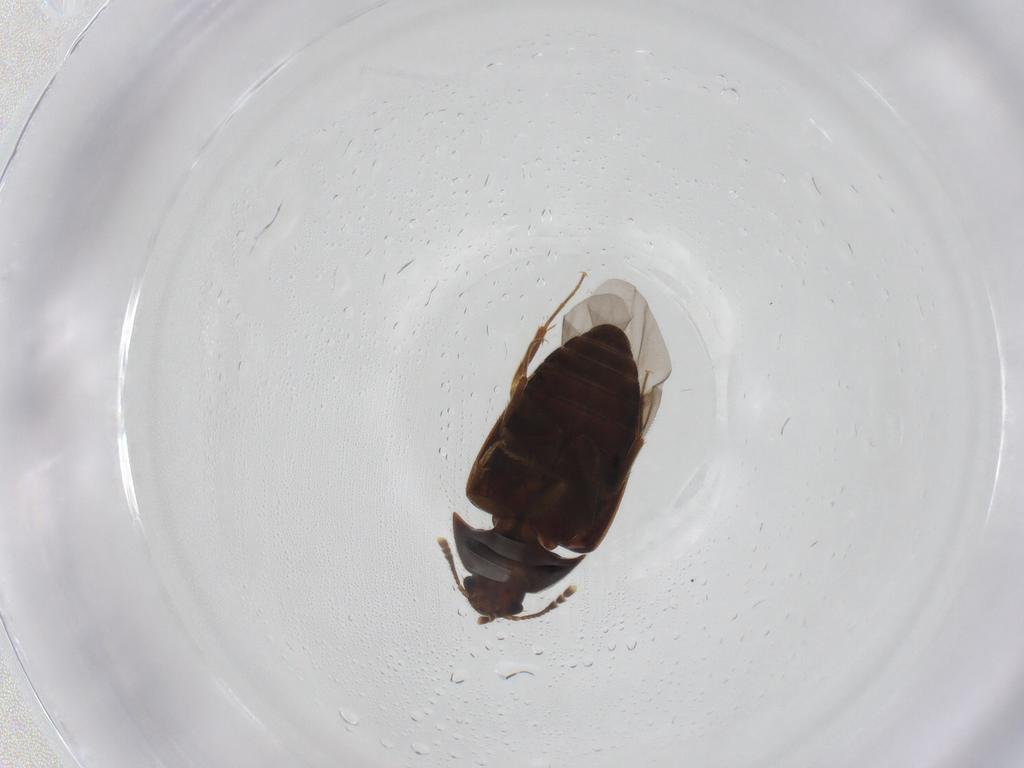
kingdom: Animalia
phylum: Arthropoda
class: Insecta
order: Coleoptera
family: Mycetophagidae
